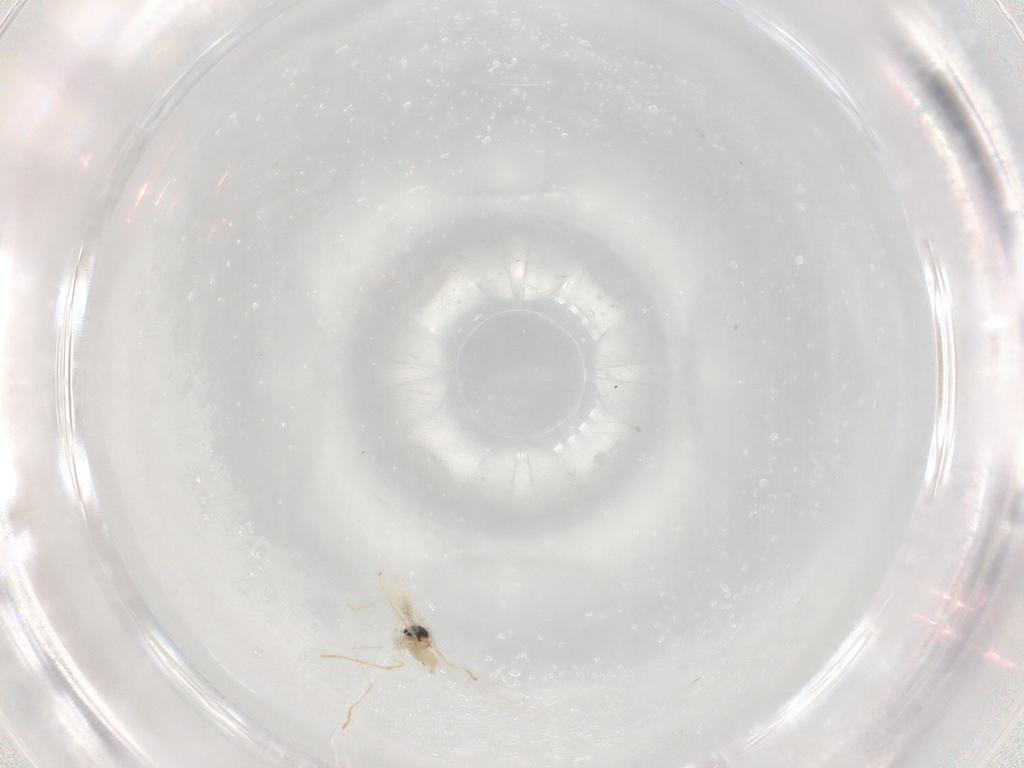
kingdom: Animalia
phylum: Arthropoda
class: Insecta
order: Diptera
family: Cecidomyiidae
